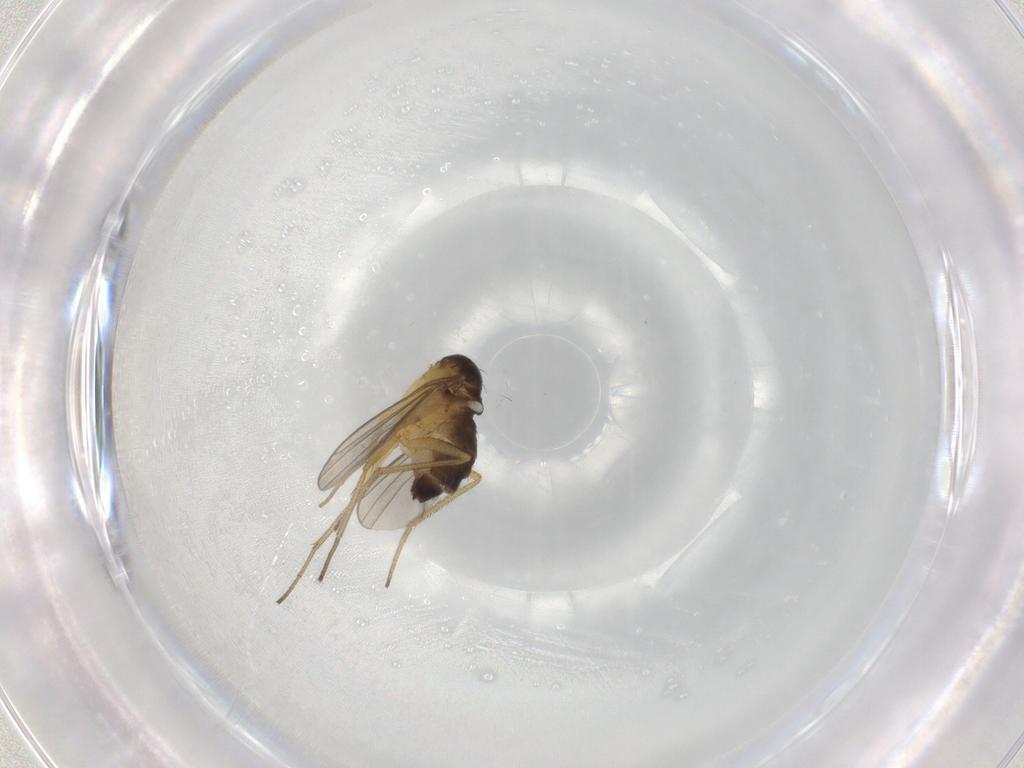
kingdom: Animalia
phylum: Arthropoda
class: Insecta
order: Diptera
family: Dolichopodidae
